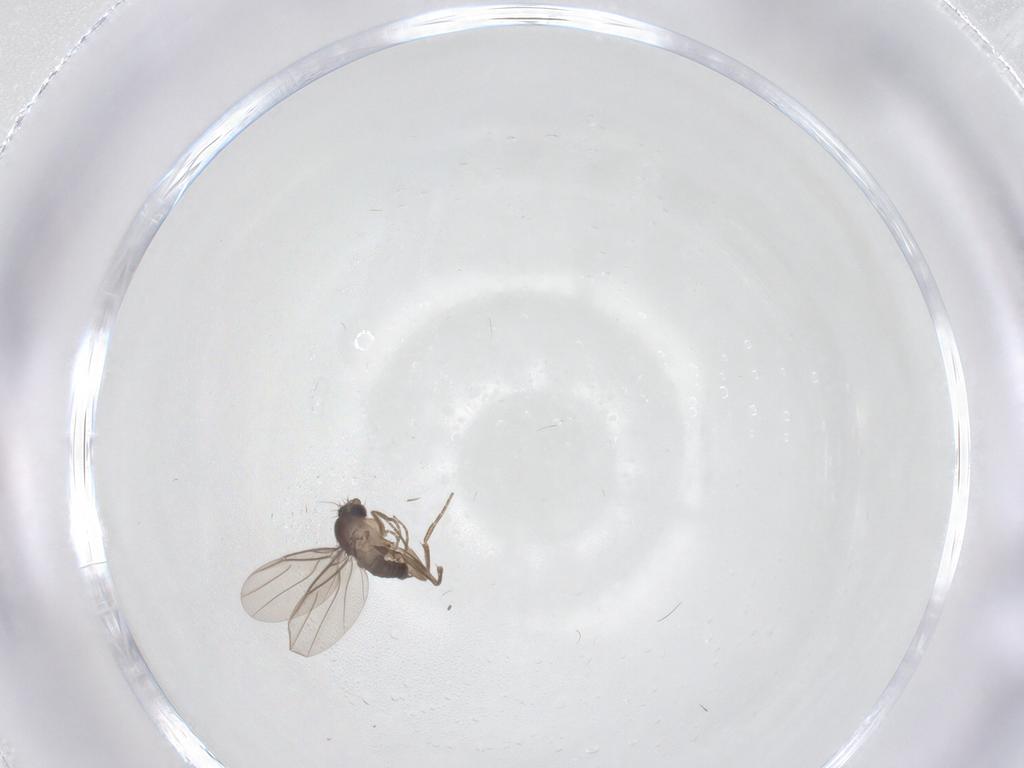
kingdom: Animalia
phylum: Arthropoda
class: Insecta
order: Diptera
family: Cecidomyiidae
